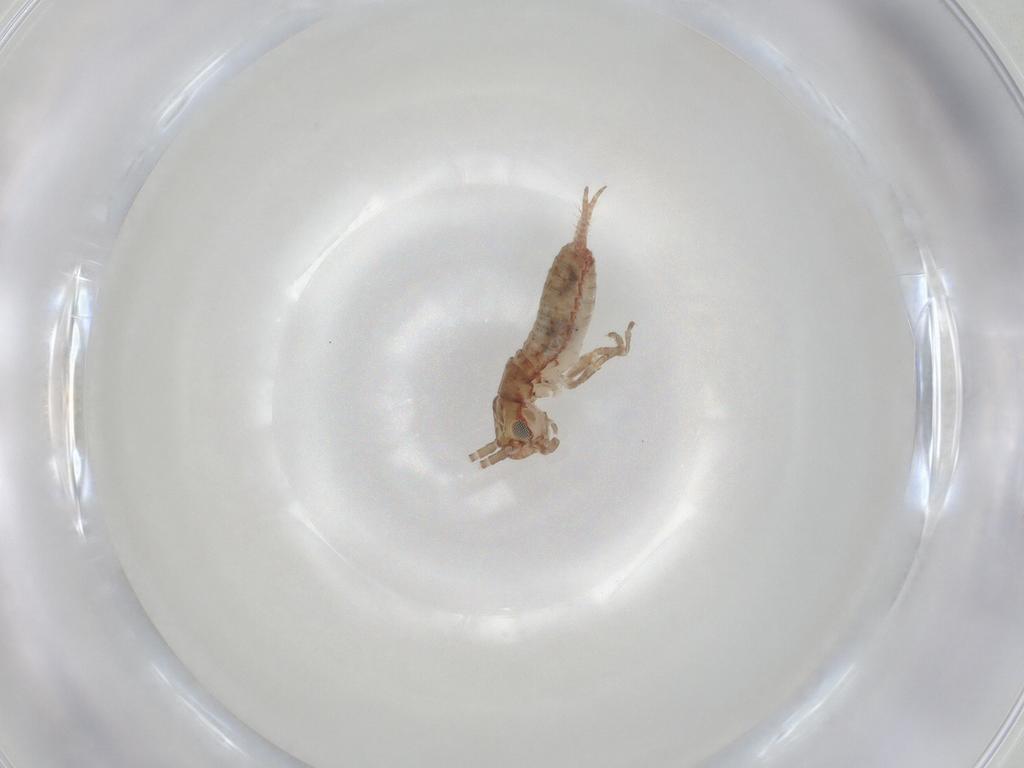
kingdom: Animalia
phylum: Arthropoda
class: Insecta
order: Orthoptera
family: Mogoplistidae
